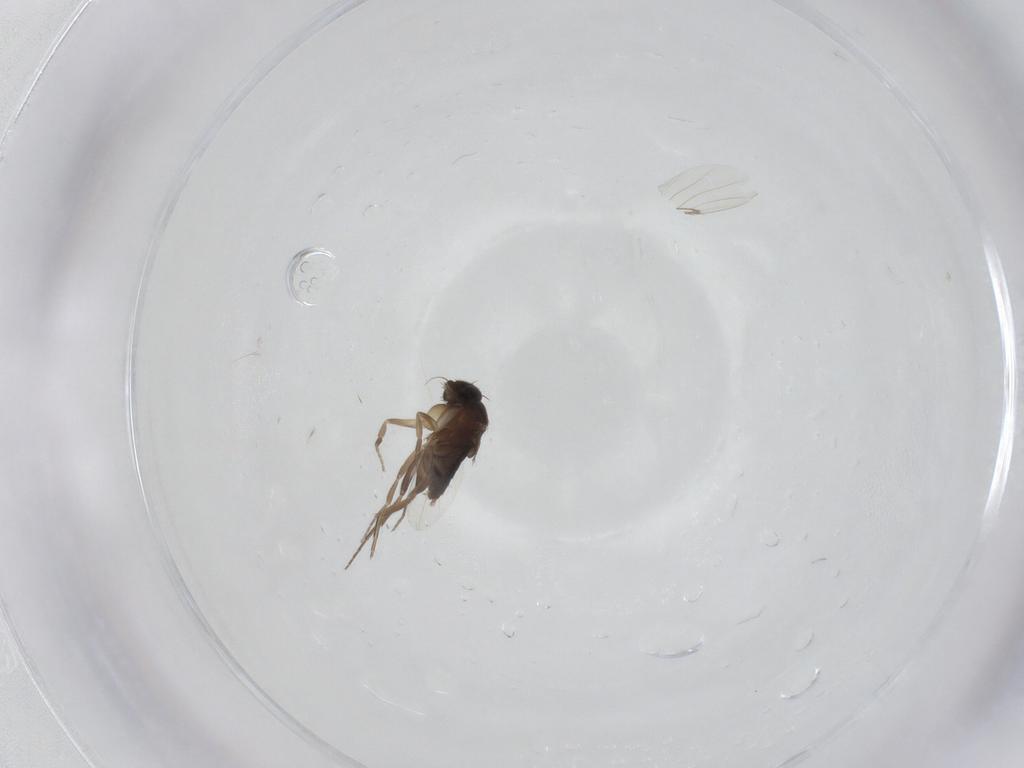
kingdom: Animalia
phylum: Arthropoda
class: Insecta
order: Diptera
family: Phoridae
